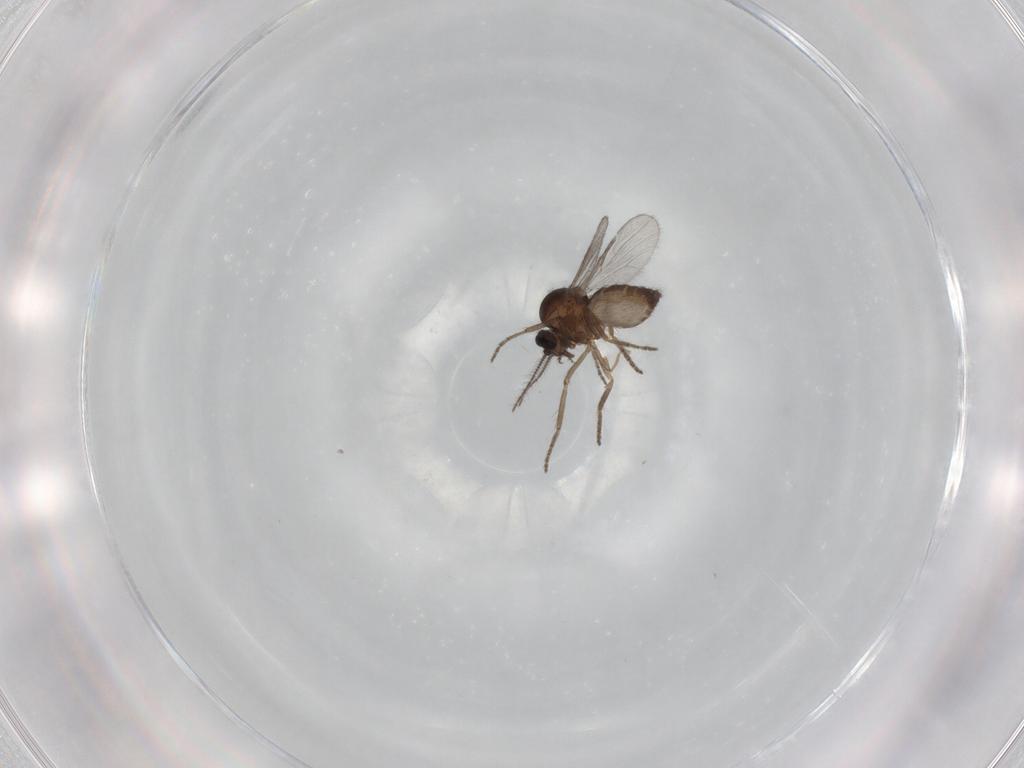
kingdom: Animalia
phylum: Arthropoda
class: Insecta
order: Diptera
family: Ceratopogonidae
